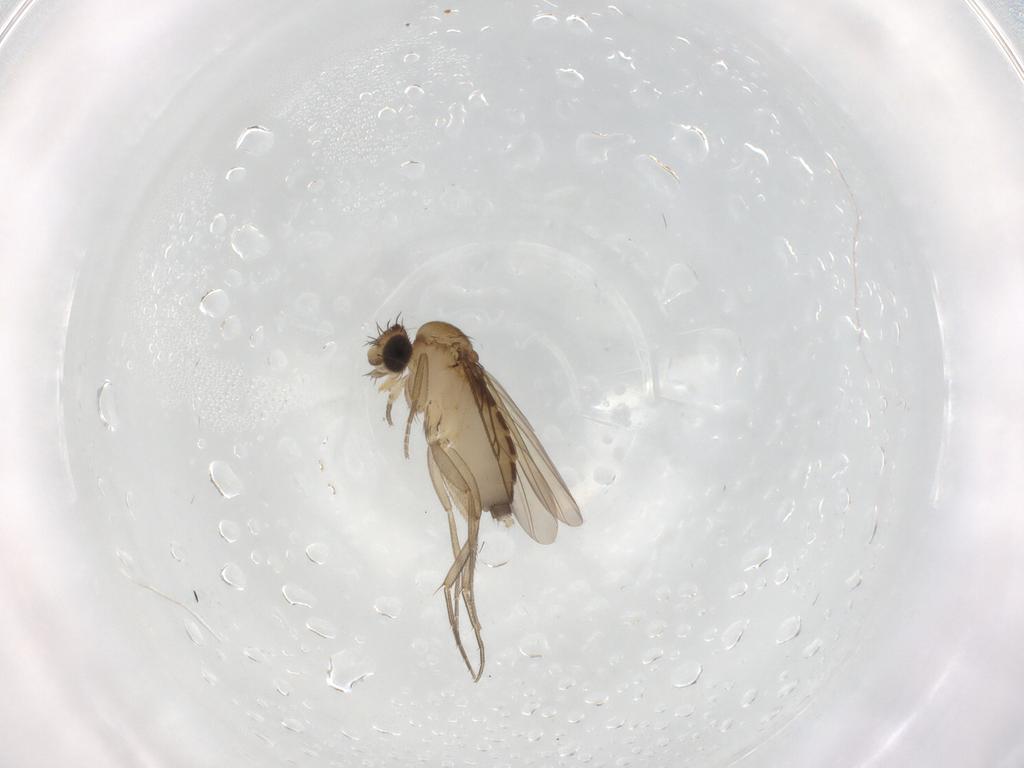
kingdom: Animalia
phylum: Arthropoda
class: Insecta
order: Diptera
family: Phoridae
